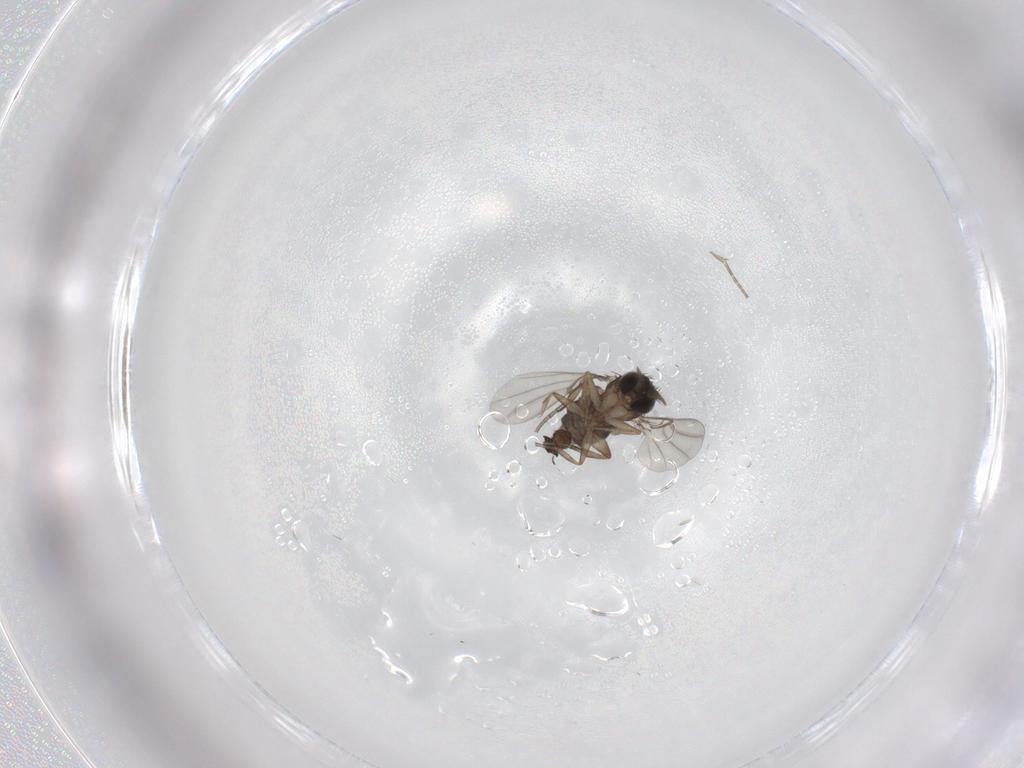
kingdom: Animalia
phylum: Arthropoda
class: Insecta
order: Diptera
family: Phoridae
